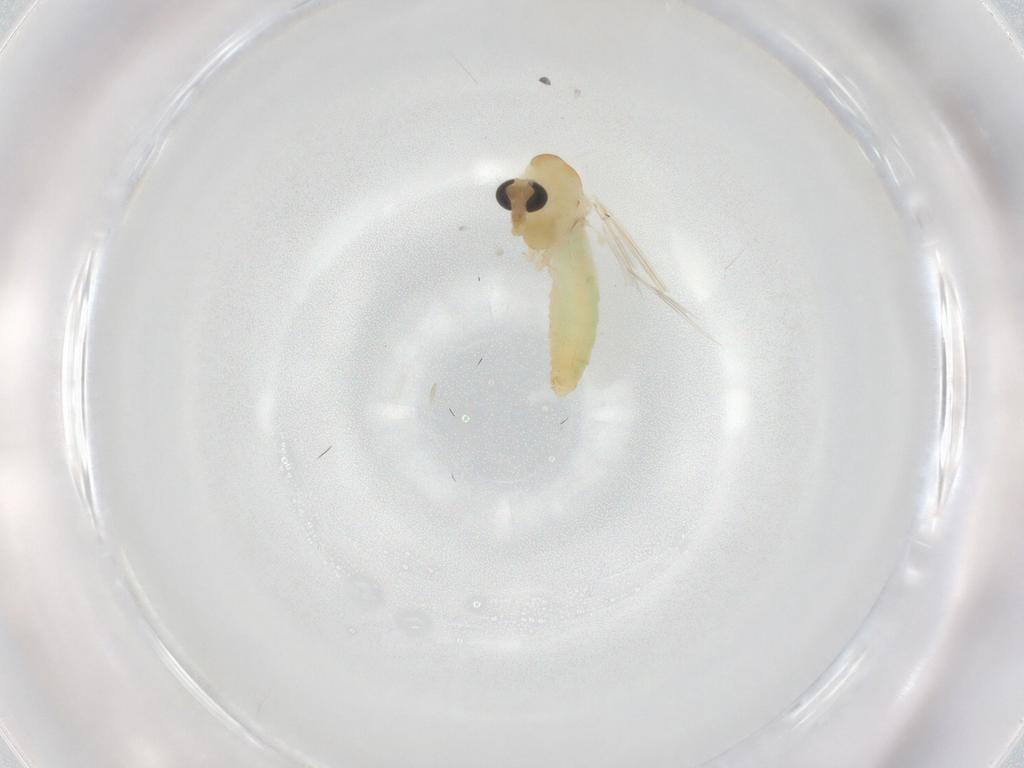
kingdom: Animalia
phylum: Arthropoda
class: Insecta
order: Diptera
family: Chironomidae
